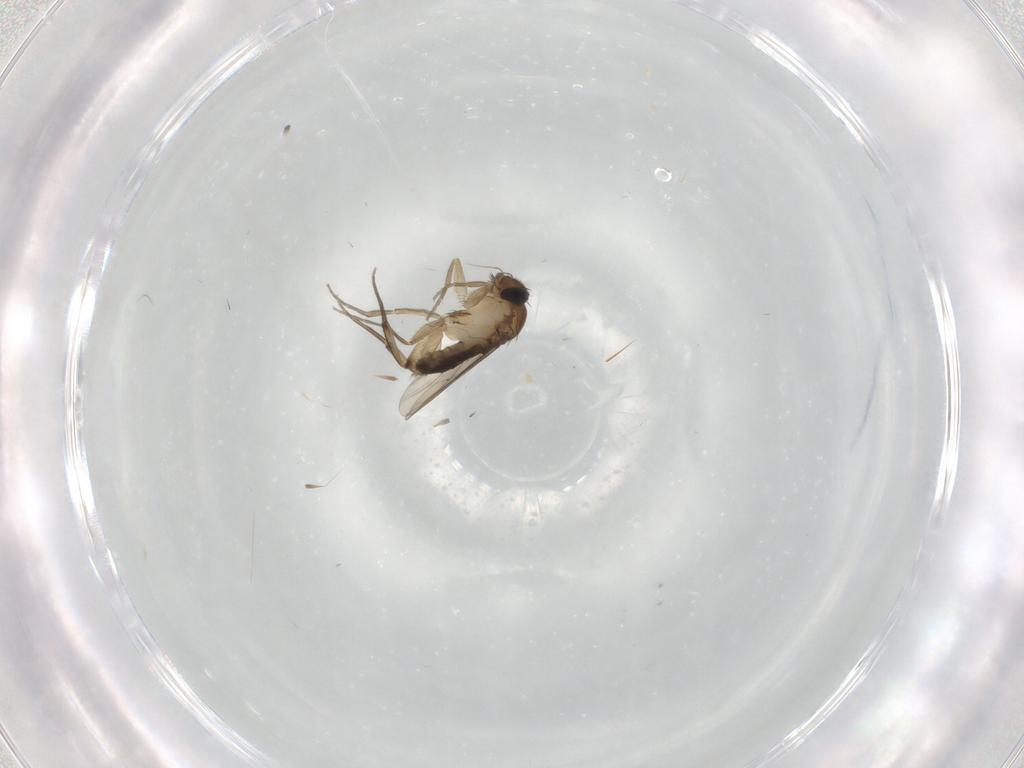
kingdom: Animalia
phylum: Arthropoda
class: Insecta
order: Diptera
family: Phoridae
